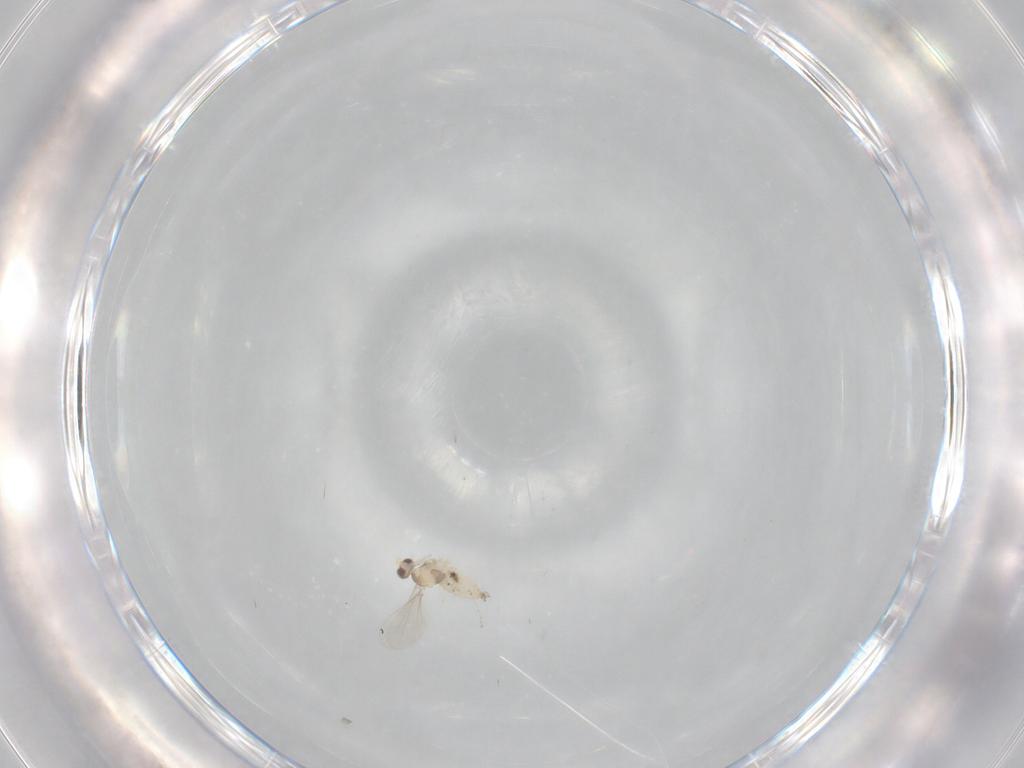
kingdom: Animalia
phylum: Arthropoda
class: Insecta
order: Diptera
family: Cecidomyiidae
